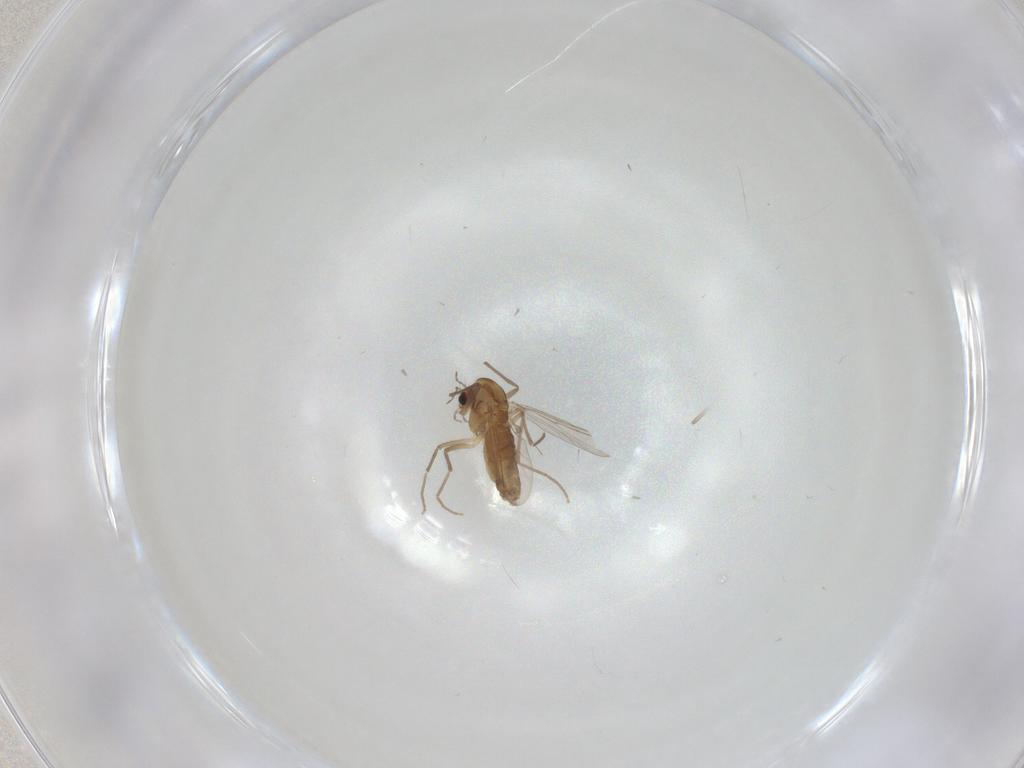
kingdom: Animalia
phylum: Arthropoda
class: Insecta
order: Diptera
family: Chironomidae
